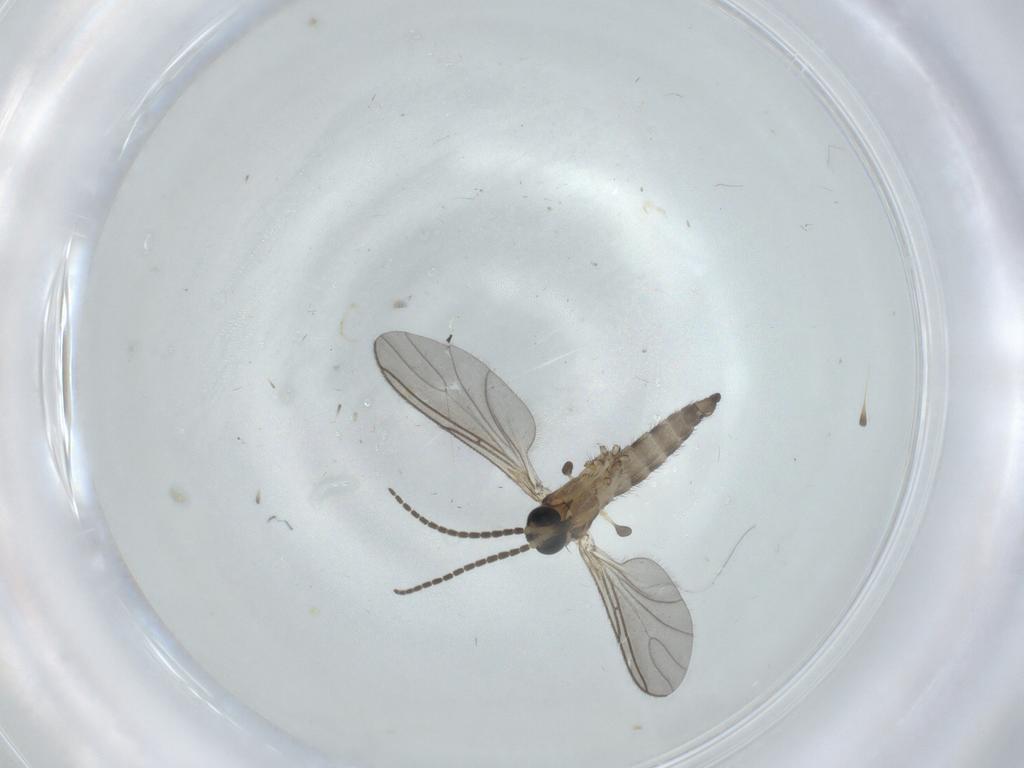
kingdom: Animalia
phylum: Arthropoda
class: Insecta
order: Diptera
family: Sciaridae
